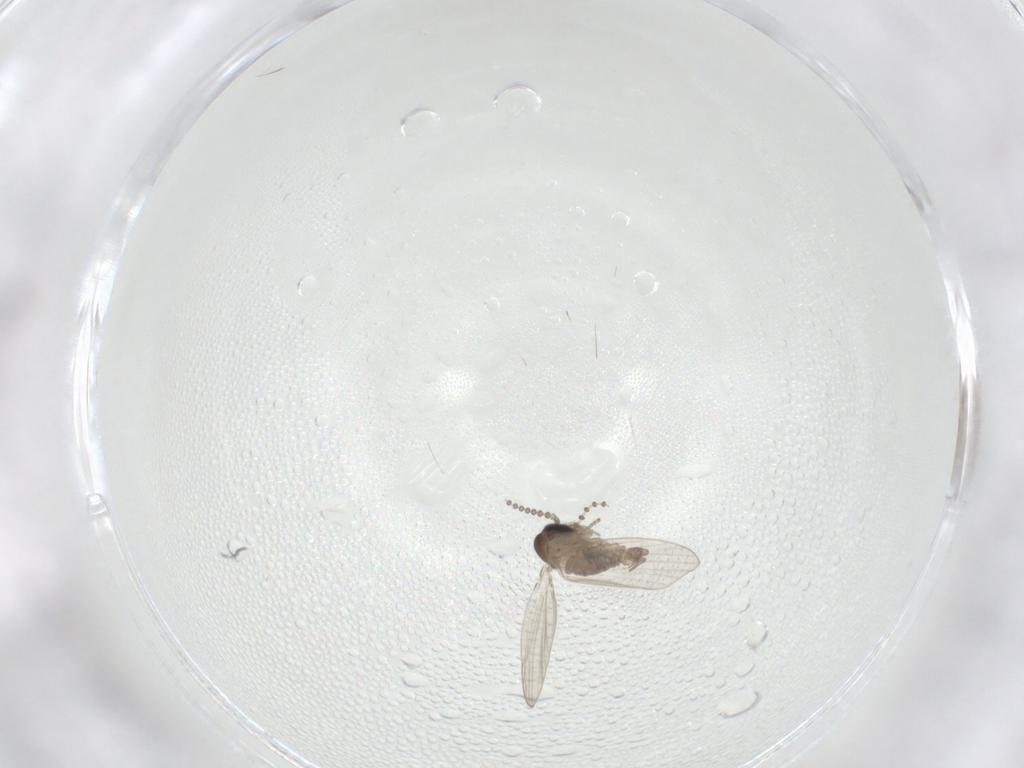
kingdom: Animalia
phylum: Arthropoda
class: Insecta
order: Diptera
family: Psychodidae
